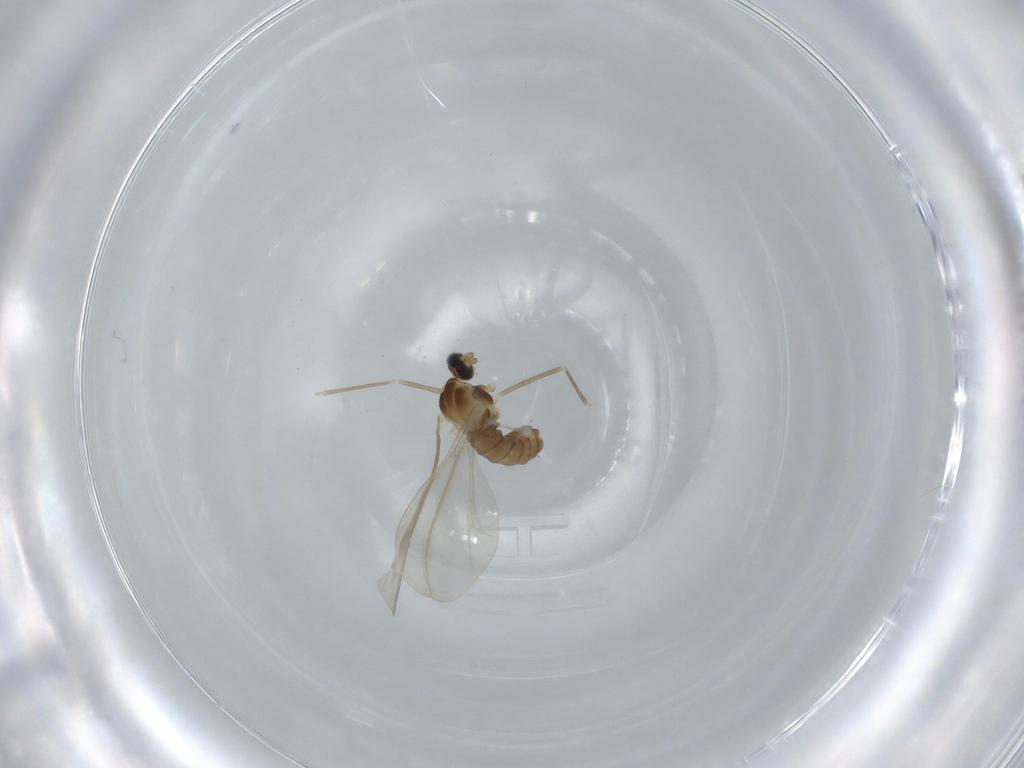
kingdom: Animalia
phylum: Arthropoda
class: Insecta
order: Diptera
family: Cecidomyiidae
